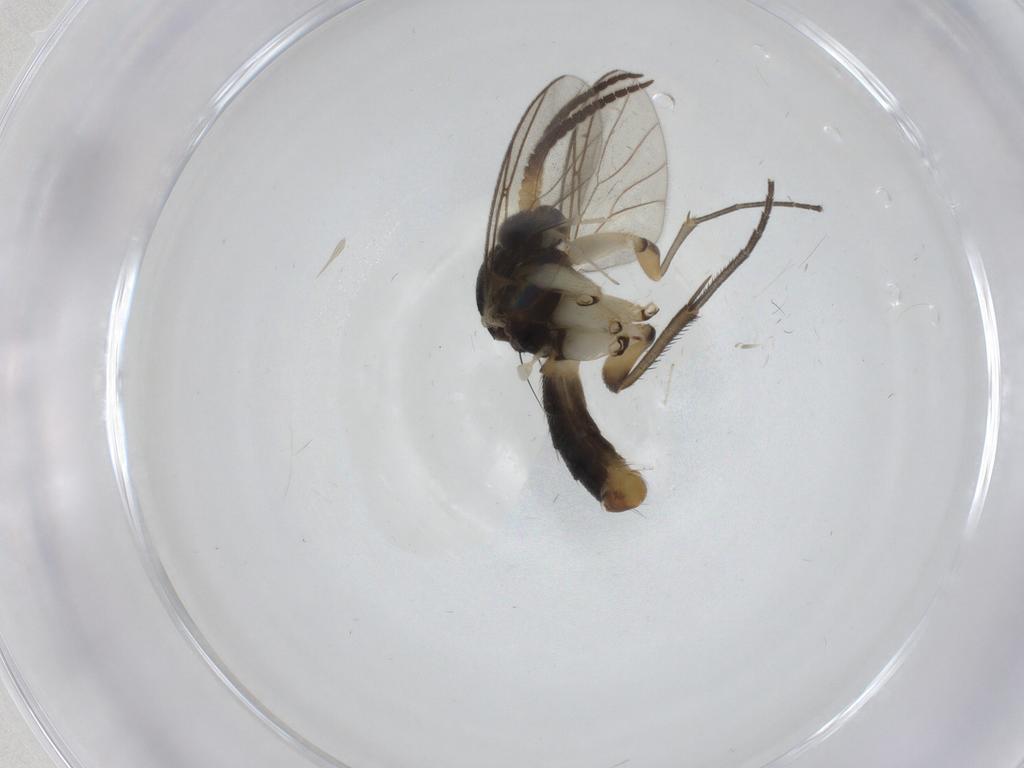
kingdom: Animalia
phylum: Arthropoda
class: Insecta
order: Diptera
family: Mycetophilidae
